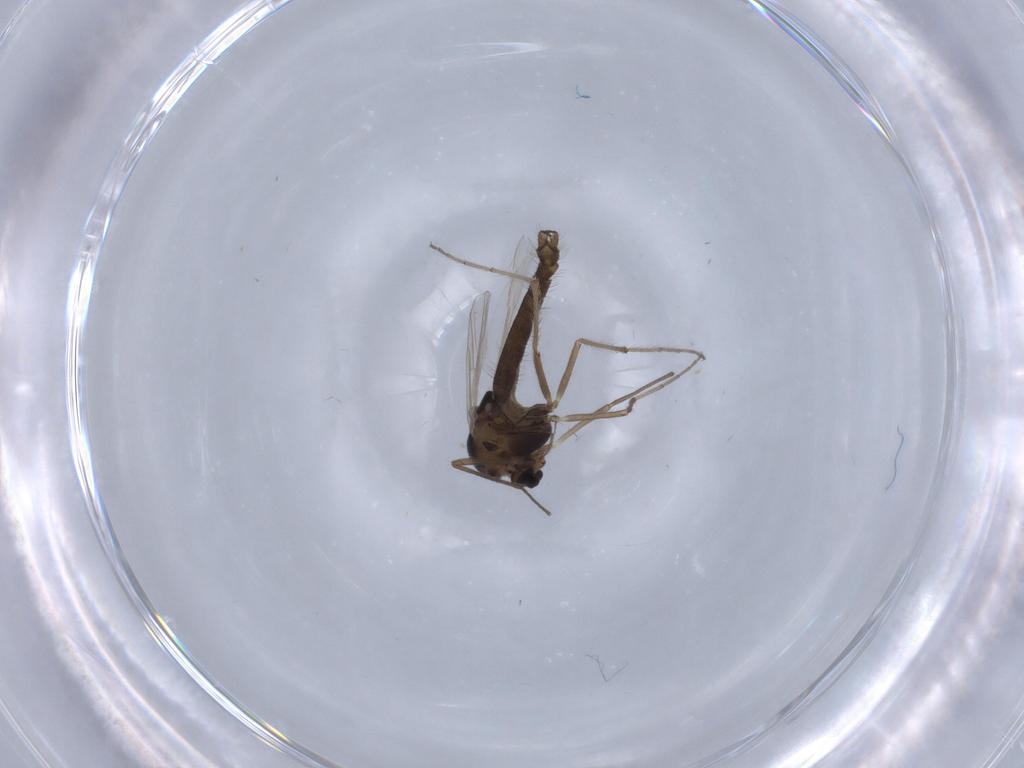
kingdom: Animalia
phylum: Arthropoda
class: Insecta
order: Diptera
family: Chironomidae
